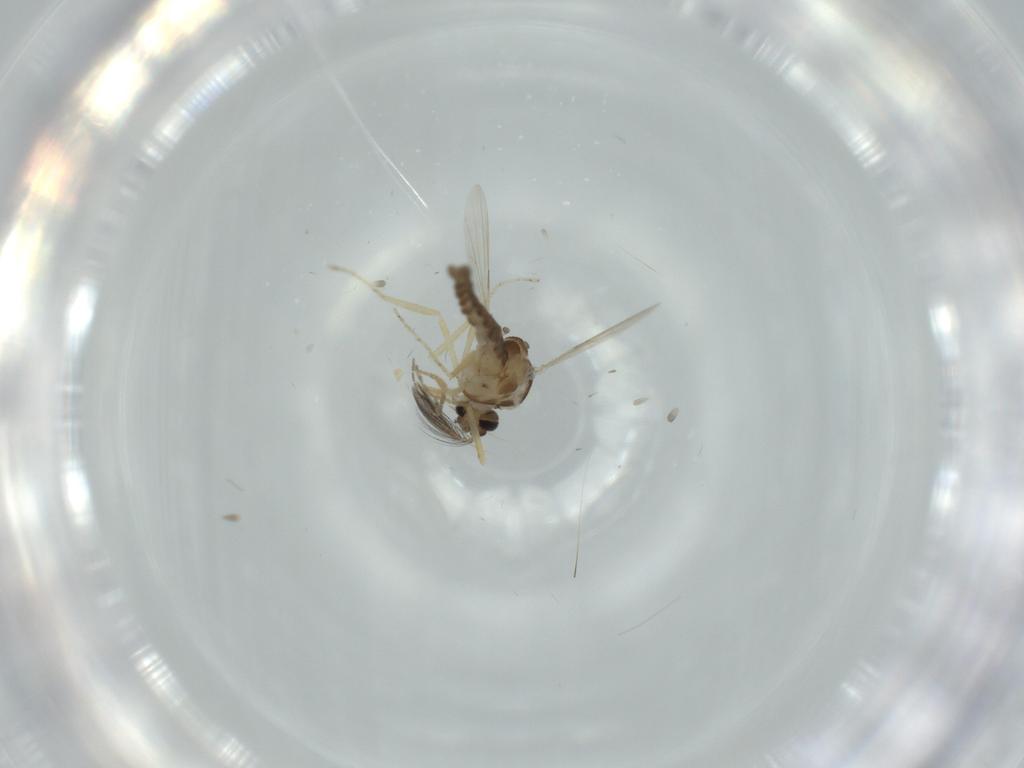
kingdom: Animalia
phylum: Arthropoda
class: Insecta
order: Diptera
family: Ceratopogonidae
